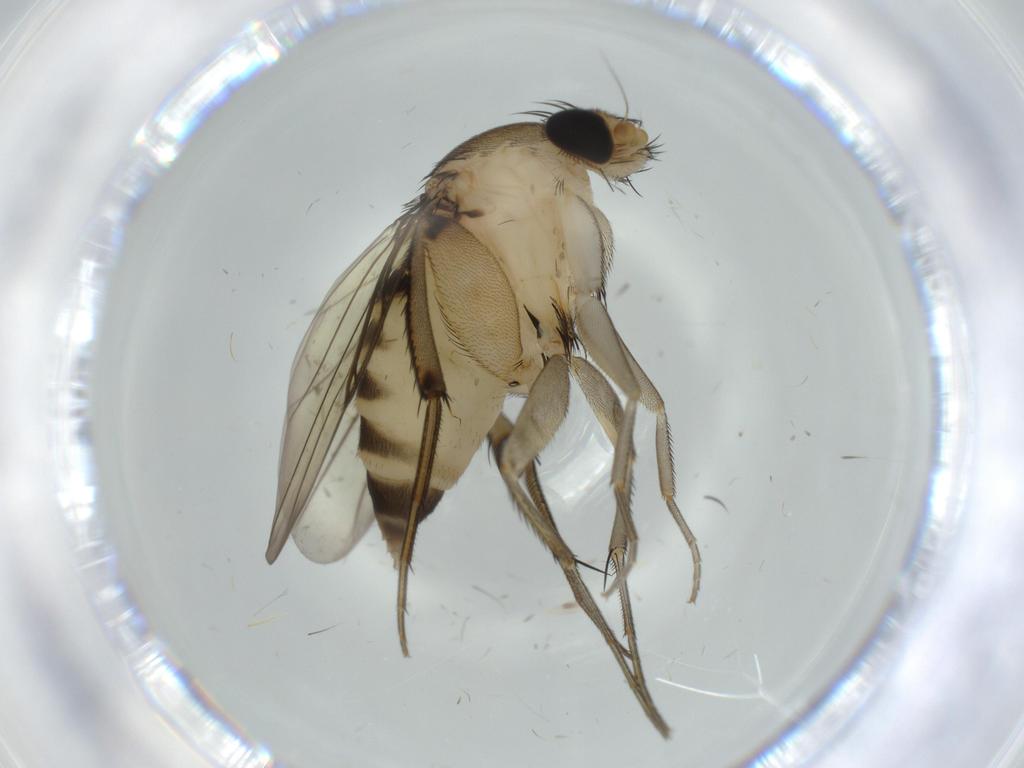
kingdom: Animalia
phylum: Arthropoda
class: Insecta
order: Diptera
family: Phoridae
